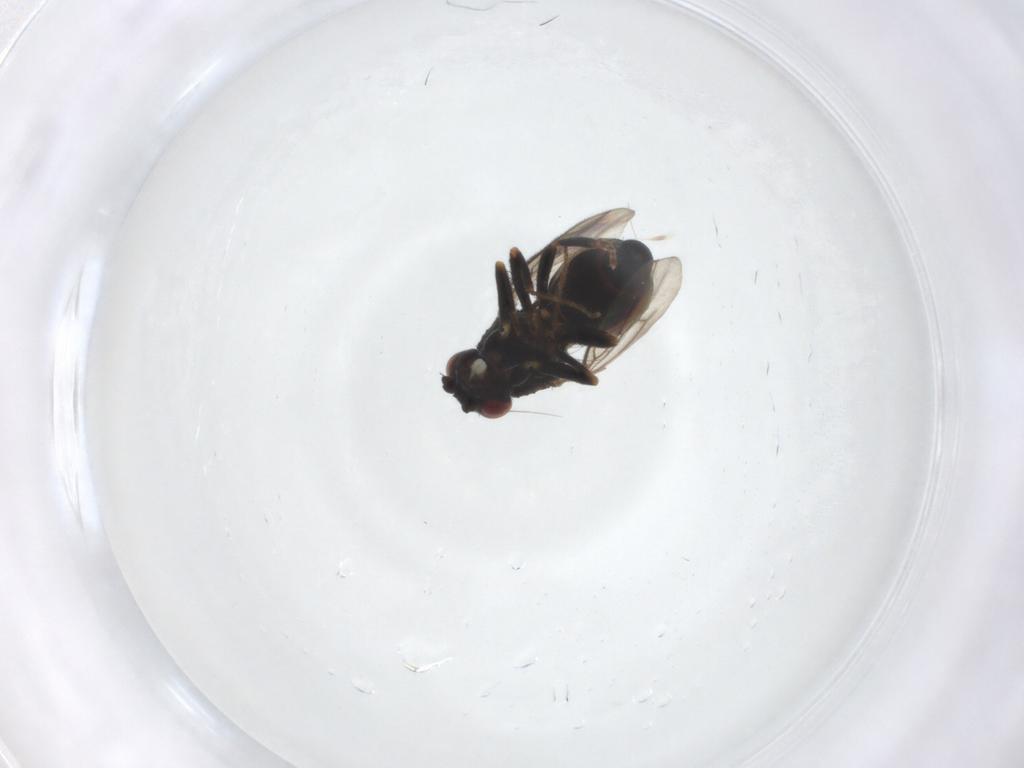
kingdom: Animalia
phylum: Arthropoda
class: Insecta
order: Diptera
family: Sphaeroceridae
